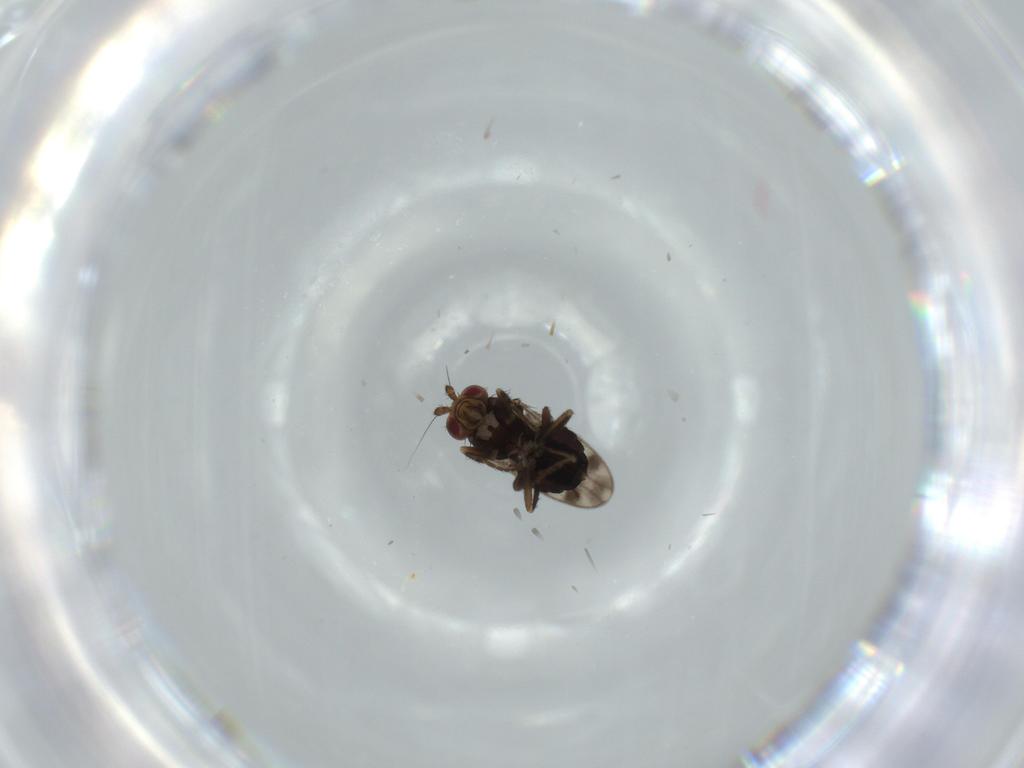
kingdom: Animalia
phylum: Arthropoda
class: Insecta
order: Diptera
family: Sphaeroceridae
